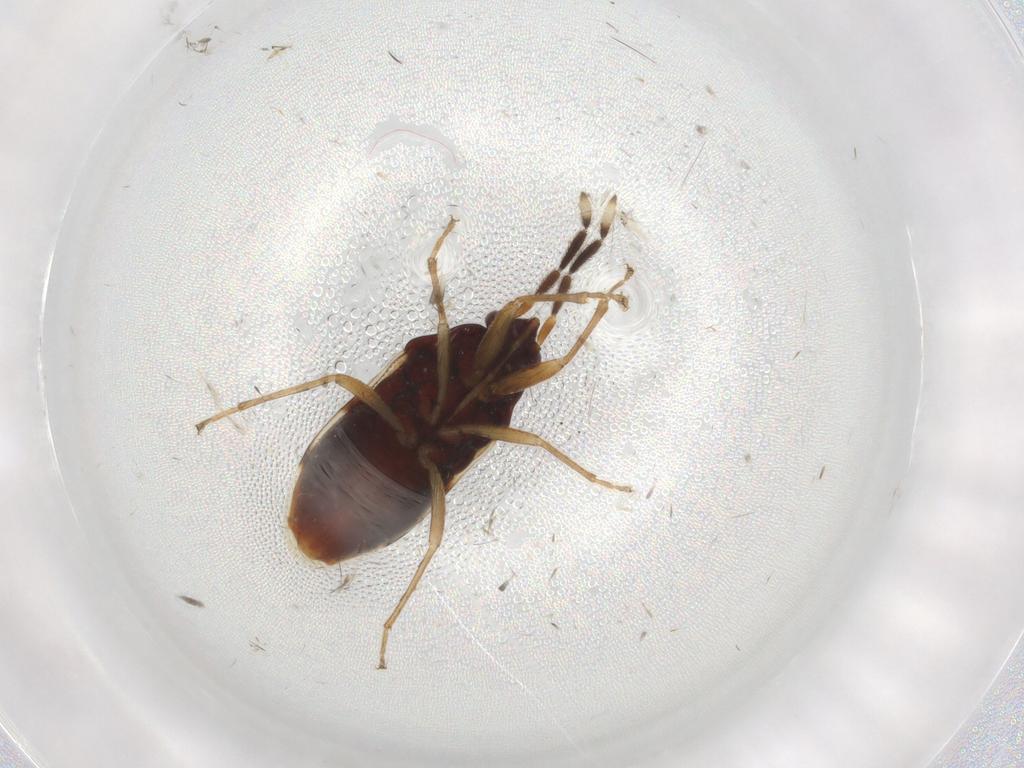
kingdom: Animalia
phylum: Arthropoda
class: Insecta
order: Hemiptera
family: Rhyparochromidae
